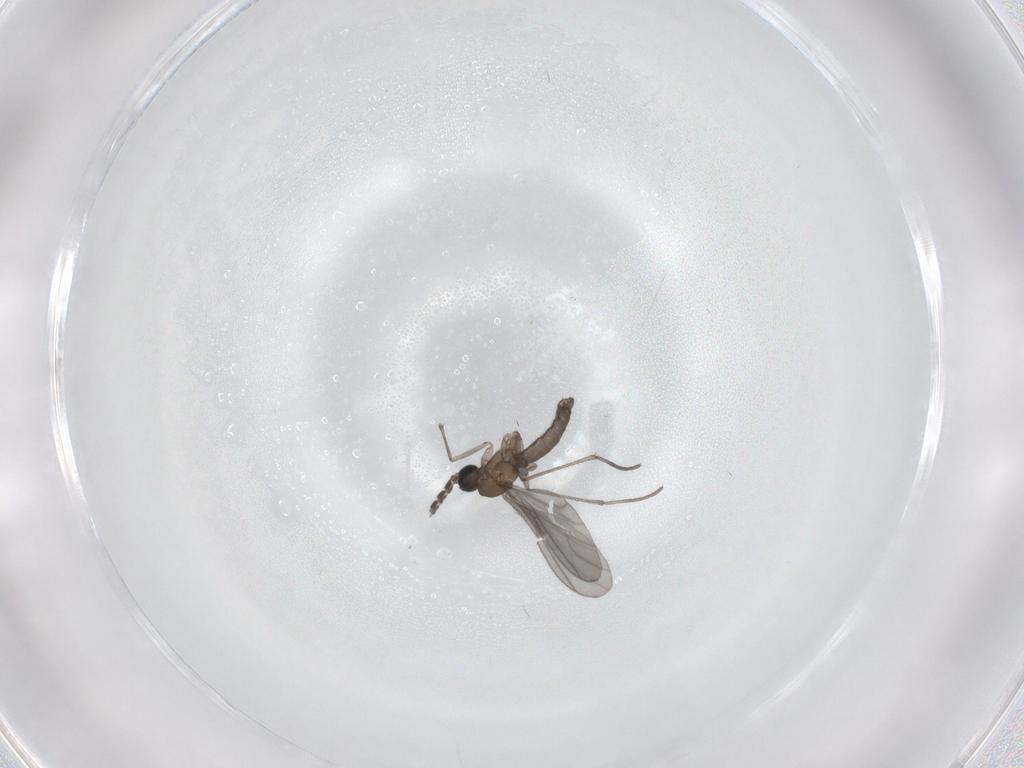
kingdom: Animalia
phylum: Arthropoda
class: Insecta
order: Diptera
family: Sciaridae
